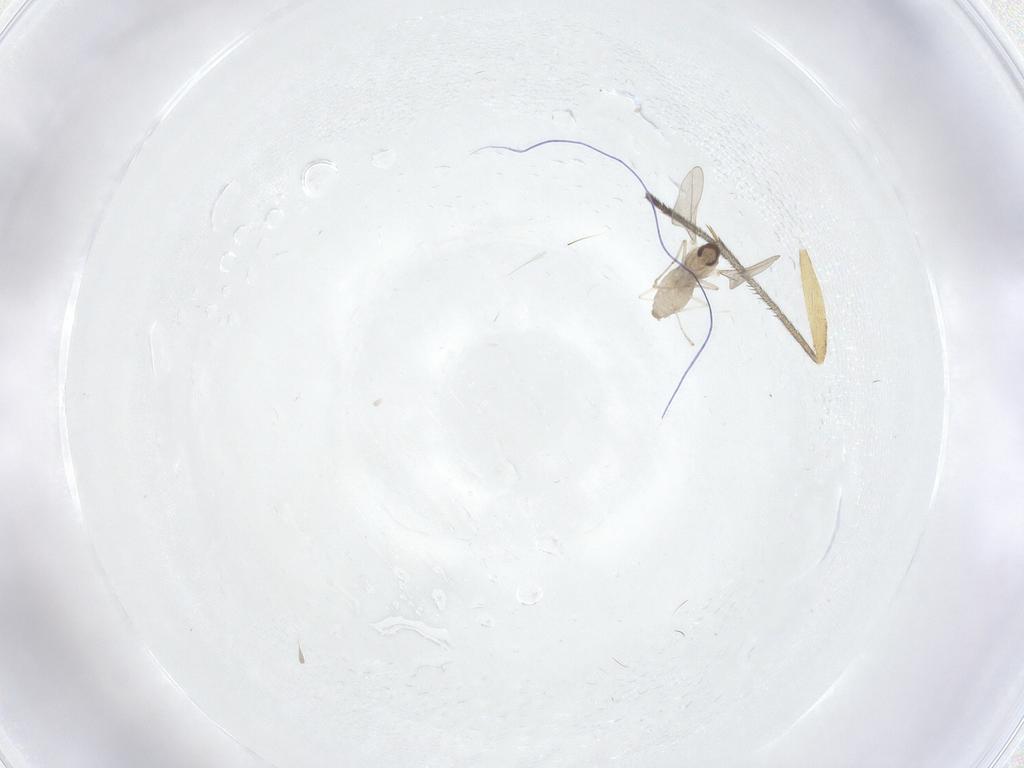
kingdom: Animalia
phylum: Arthropoda
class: Insecta
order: Diptera
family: Sciaridae
